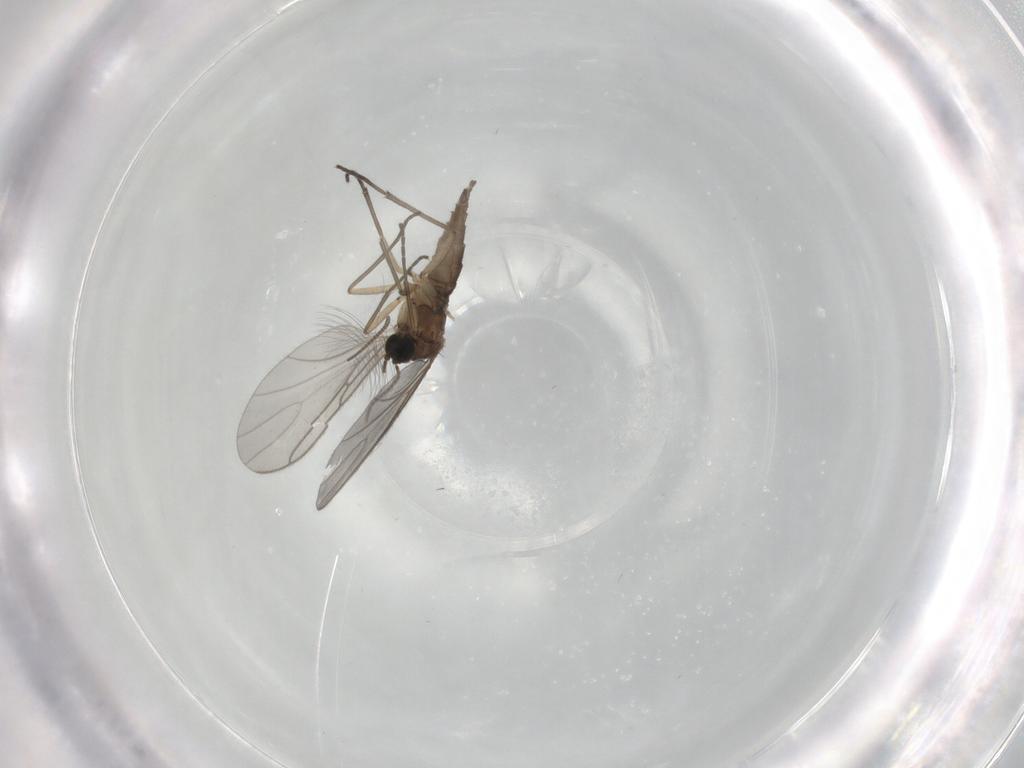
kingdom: Animalia
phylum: Arthropoda
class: Insecta
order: Diptera
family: Sciaridae
